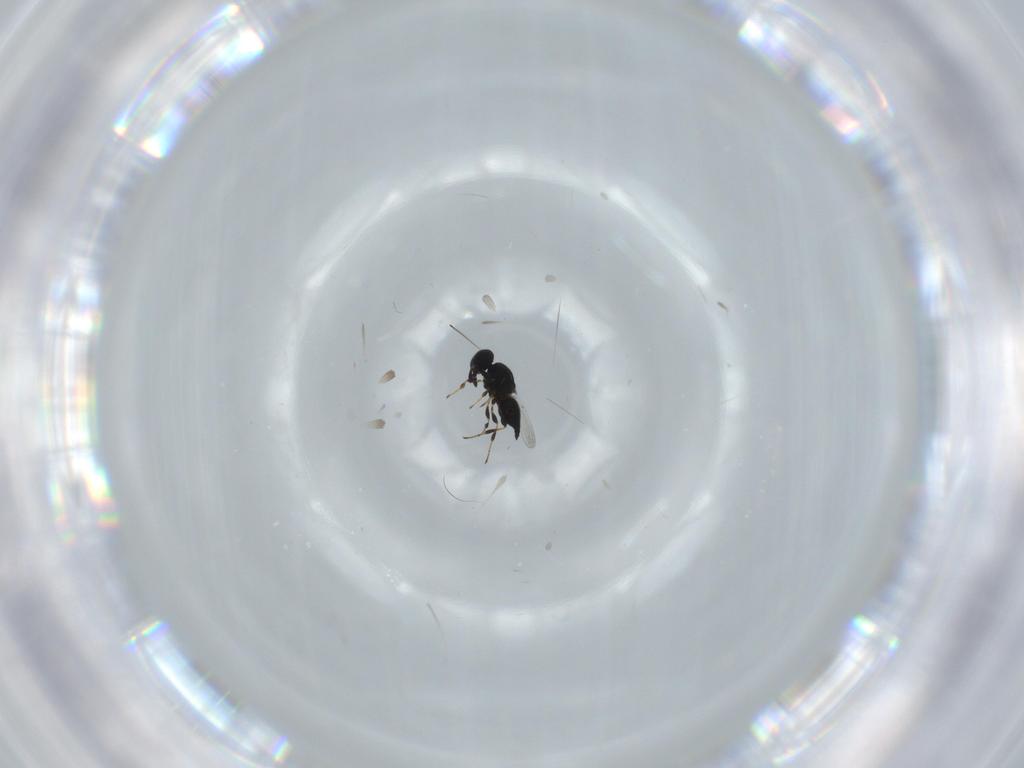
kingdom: Animalia
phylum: Arthropoda
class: Insecta
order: Hymenoptera
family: Platygastridae
